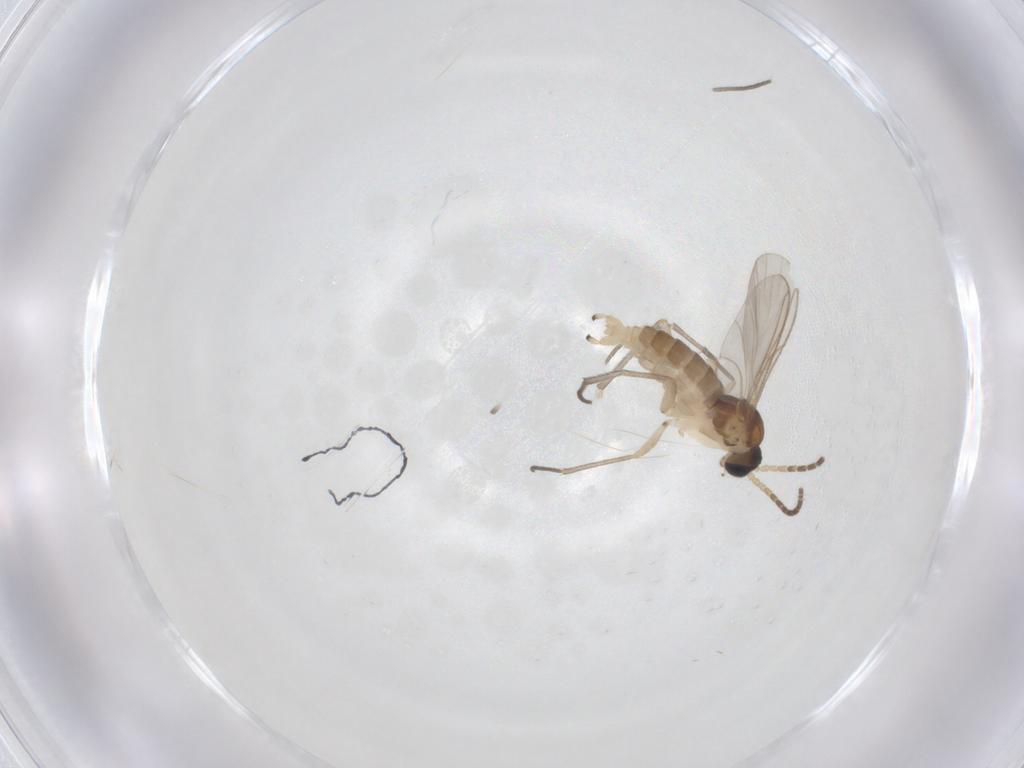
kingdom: Animalia
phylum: Arthropoda
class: Insecta
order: Diptera
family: Sciaridae
